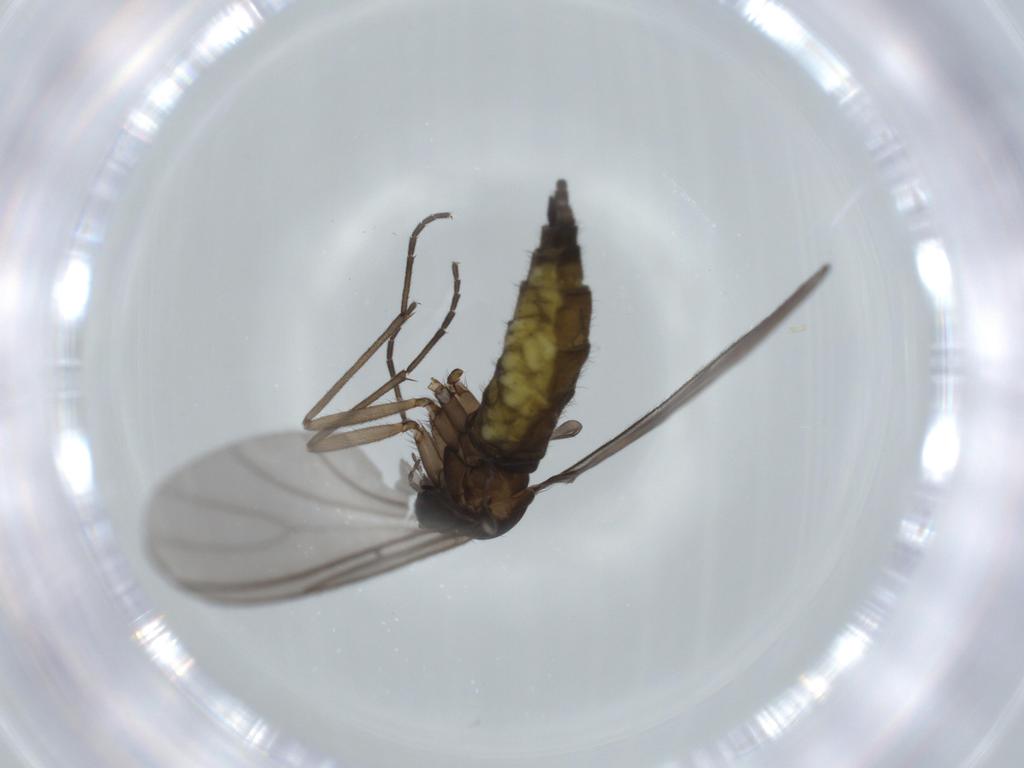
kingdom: Animalia
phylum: Arthropoda
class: Insecta
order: Diptera
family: Sciaridae
